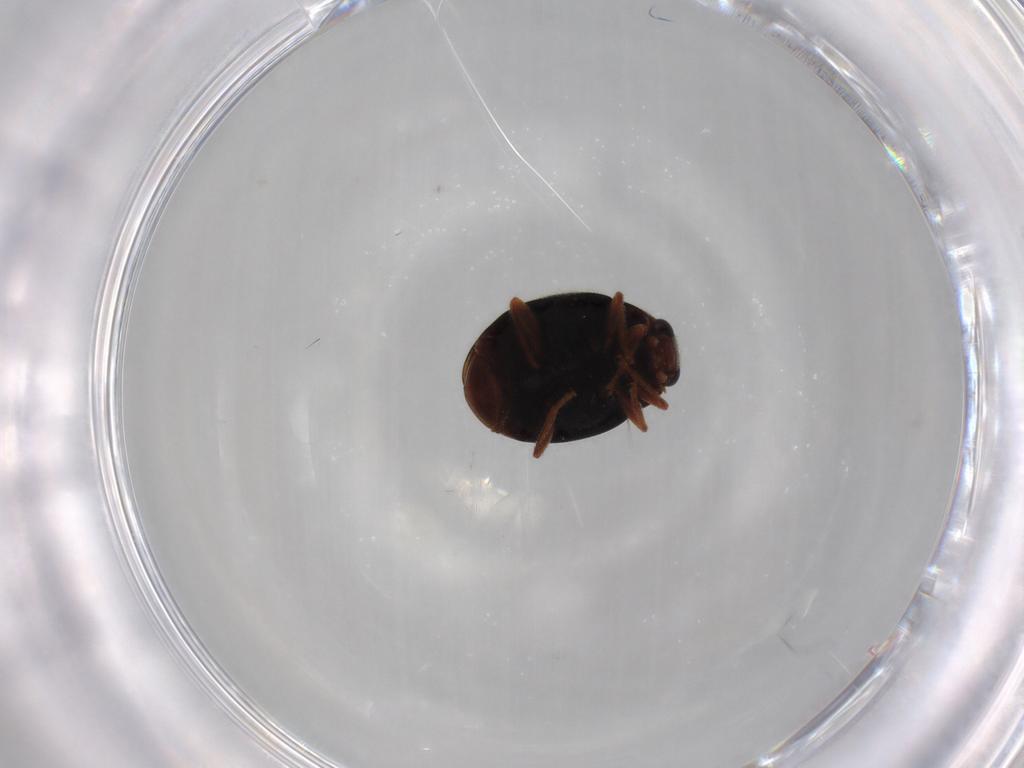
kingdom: Animalia
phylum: Arthropoda
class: Insecta
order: Coleoptera
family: Coccinellidae
